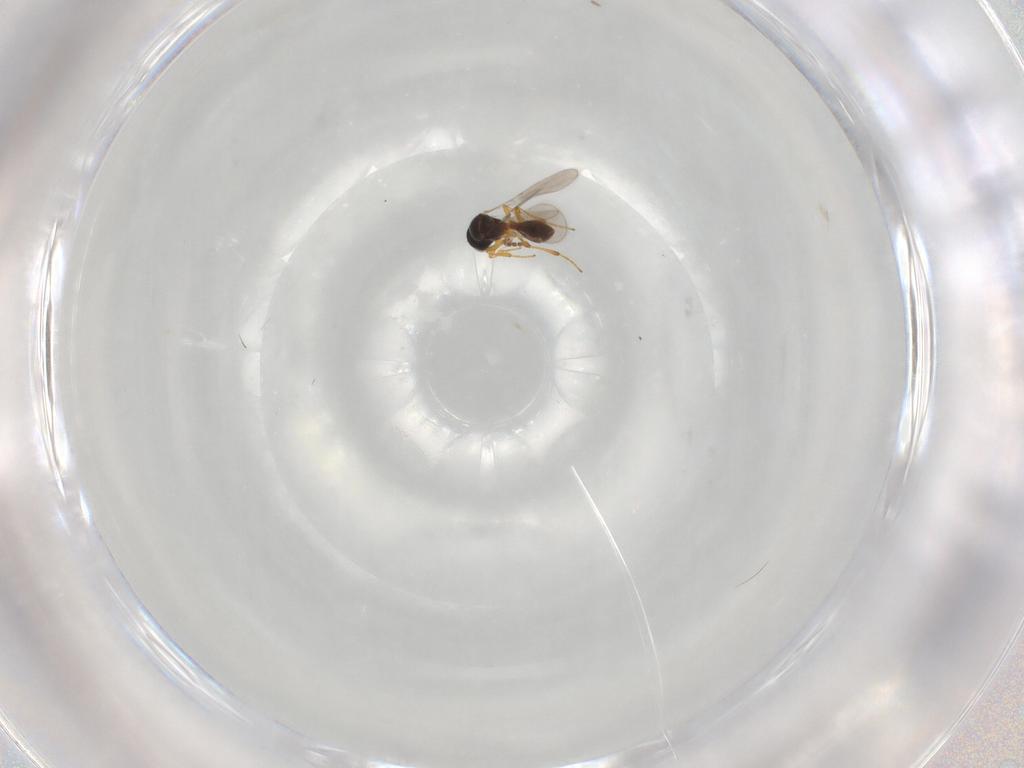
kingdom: Animalia
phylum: Arthropoda
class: Insecta
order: Hymenoptera
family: Platygastridae
